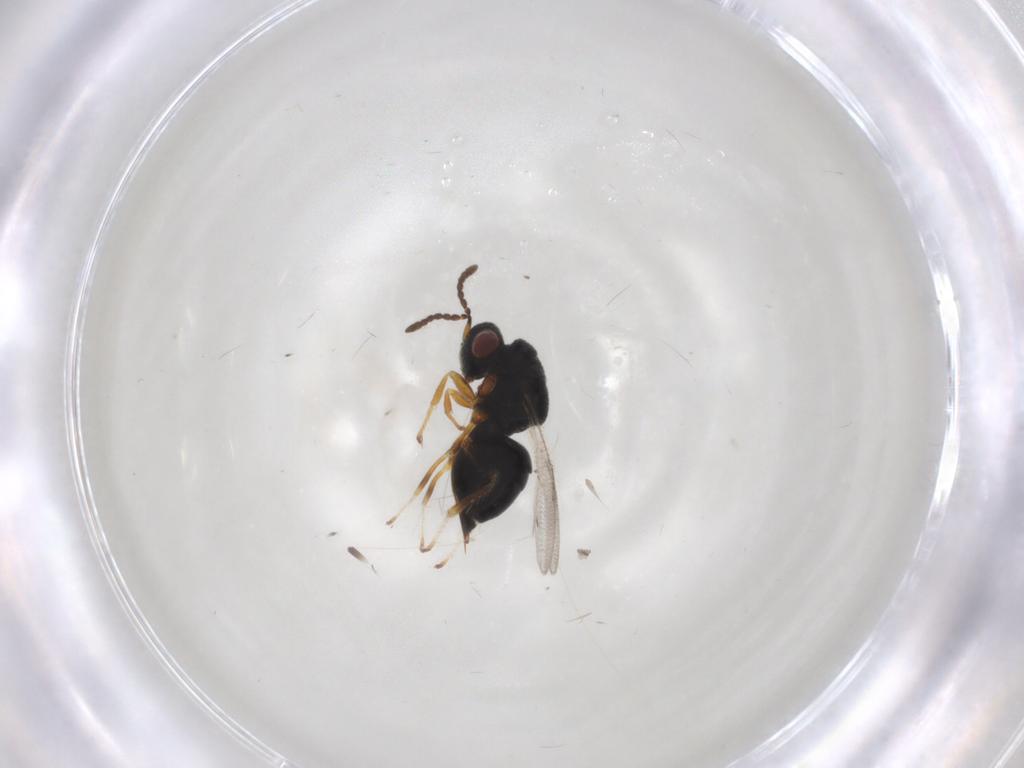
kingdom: Animalia
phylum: Arthropoda
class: Insecta
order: Hymenoptera
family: Eurytomidae
